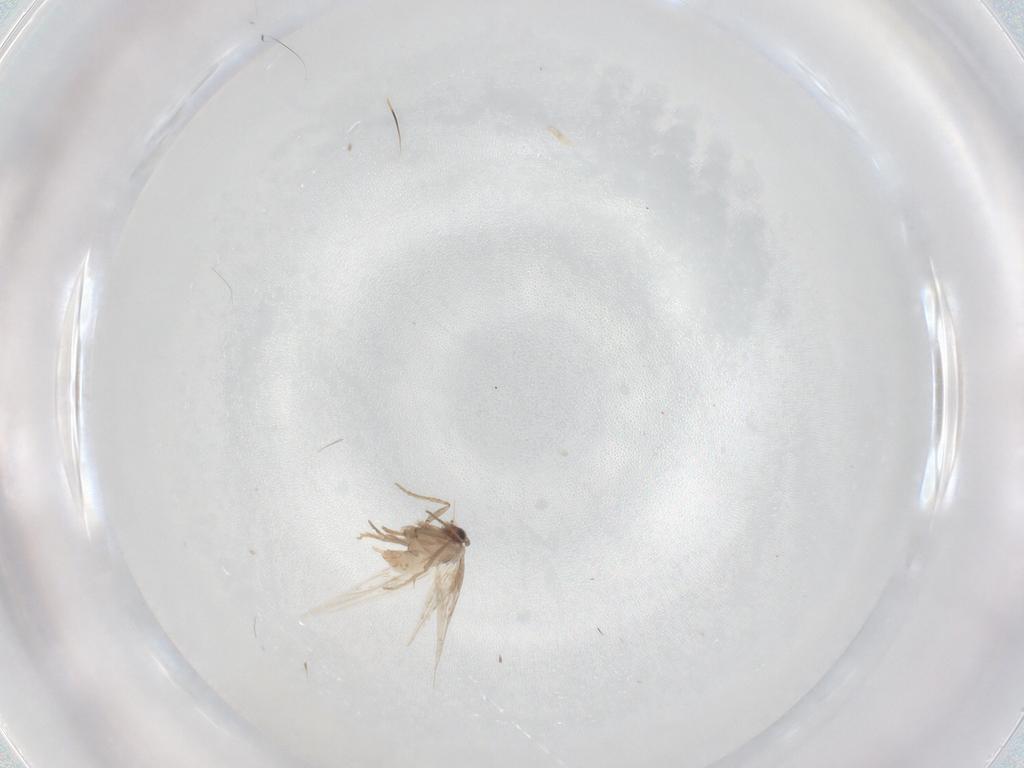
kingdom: Animalia
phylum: Arthropoda
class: Insecta
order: Lepidoptera
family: Nepticulidae
